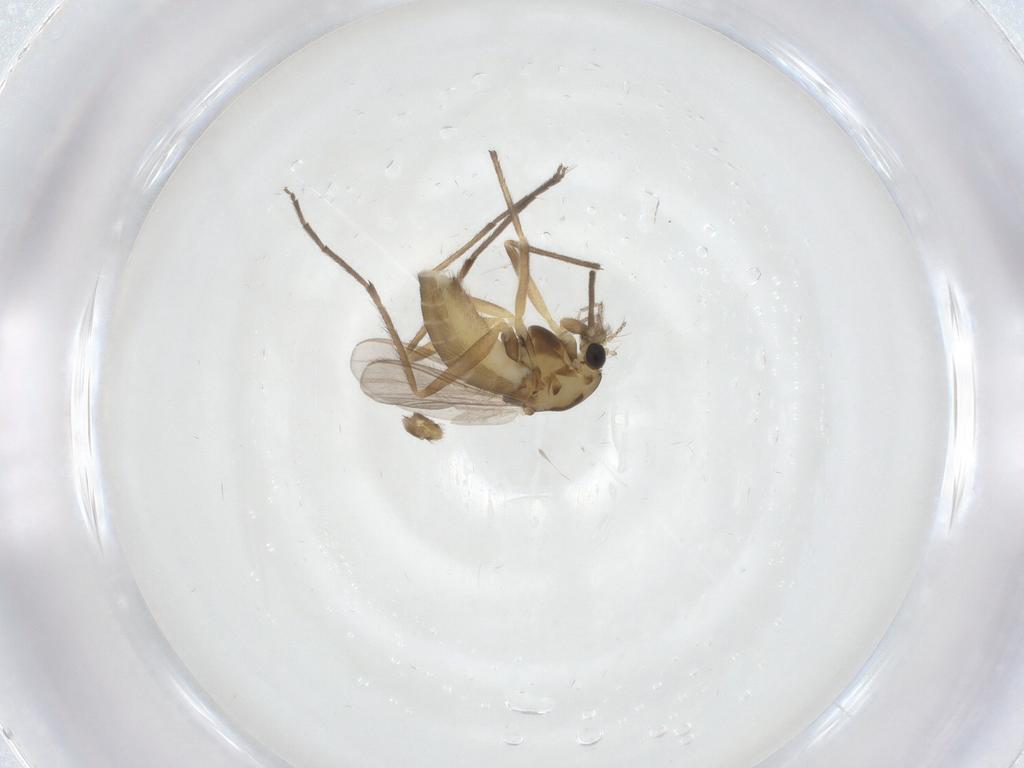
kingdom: Animalia
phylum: Arthropoda
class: Insecta
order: Diptera
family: Chironomidae
